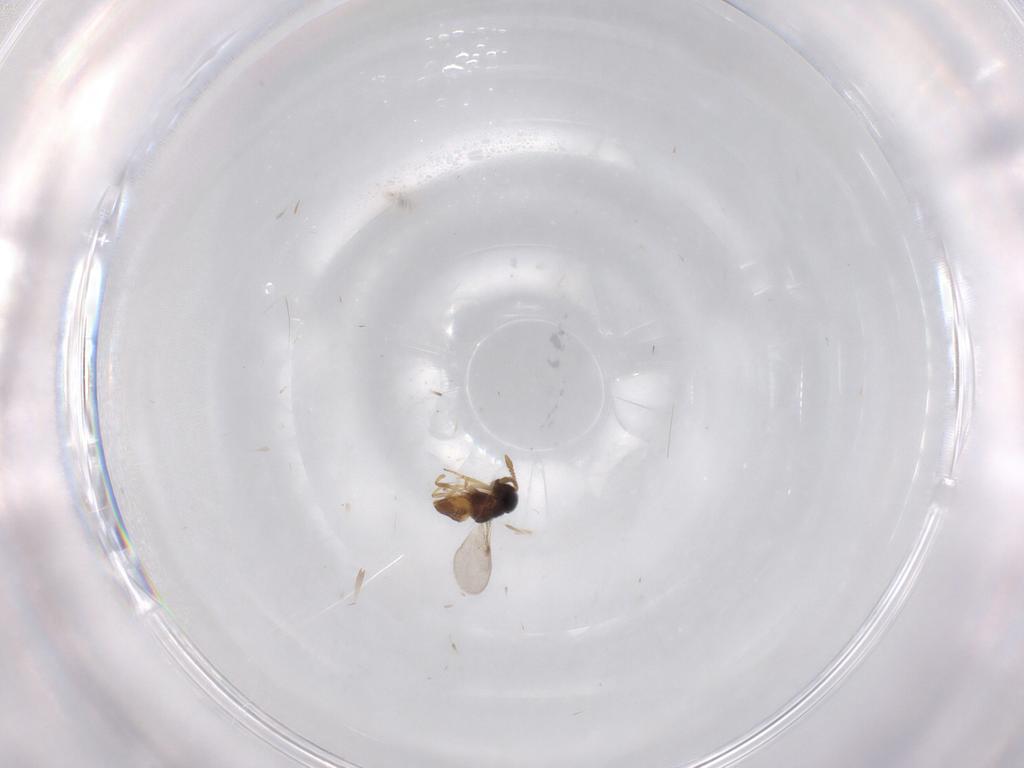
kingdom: Animalia
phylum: Arthropoda
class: Insecta
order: Hymenoptera
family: Encyrtidae
